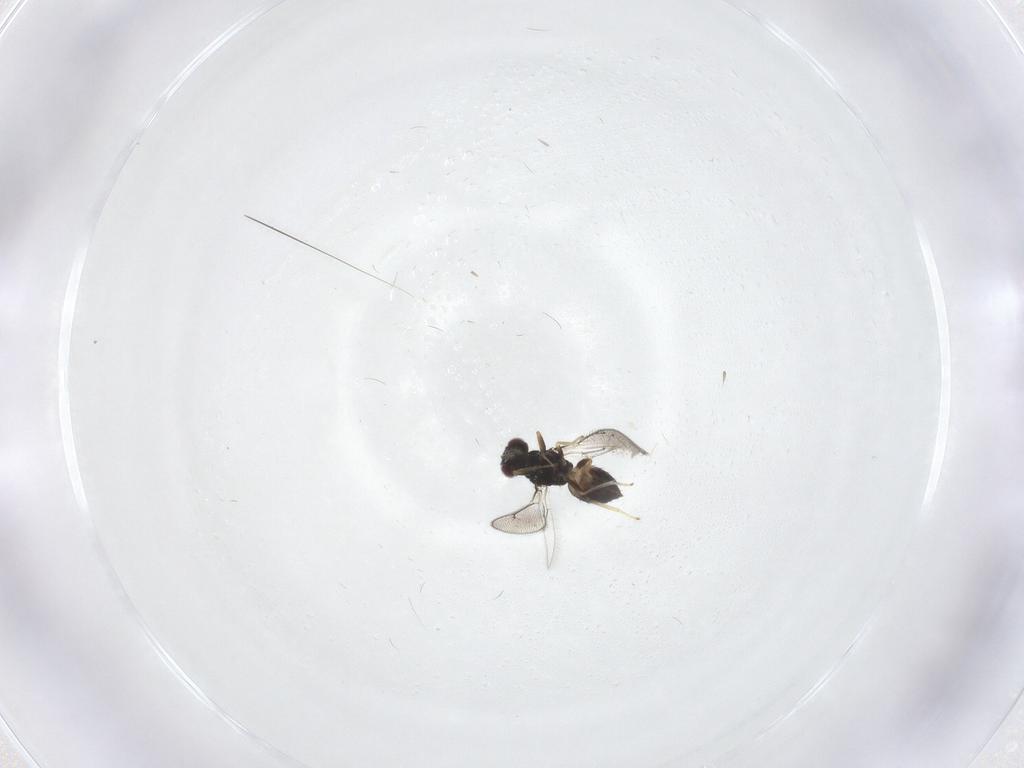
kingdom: Animalia
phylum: Arthropoda
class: Insecta
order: Hymenoptera
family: Eulophidae
